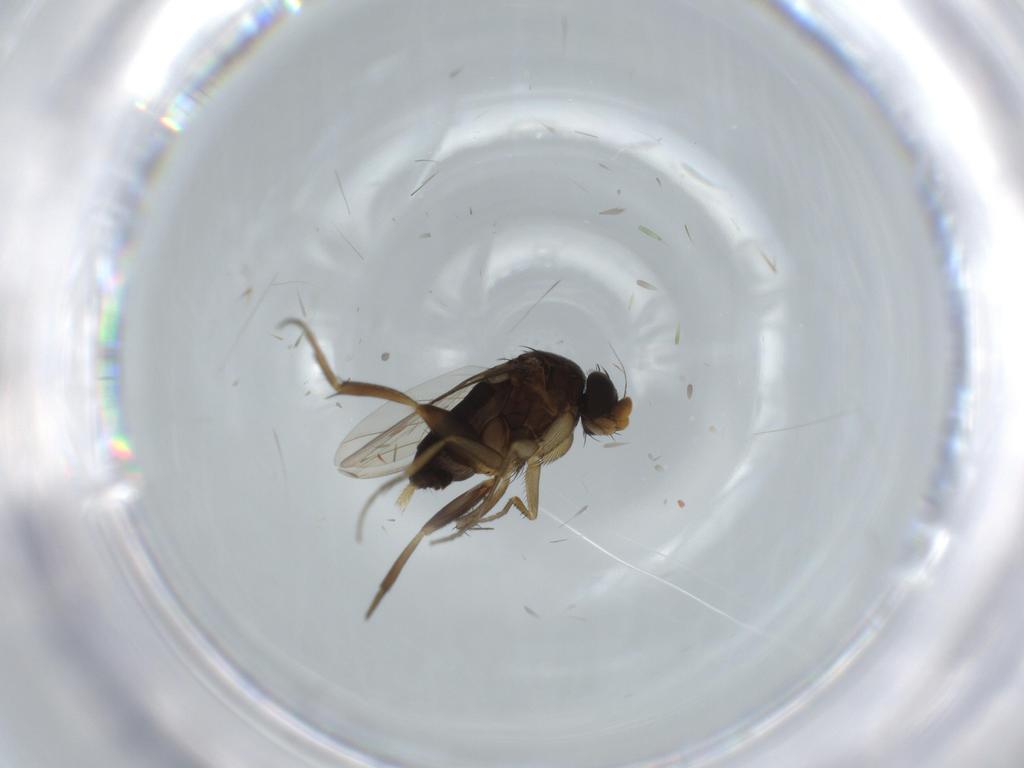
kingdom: Animalia
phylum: Arthropoda
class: Insecta
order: Diptera
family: Phoridae
